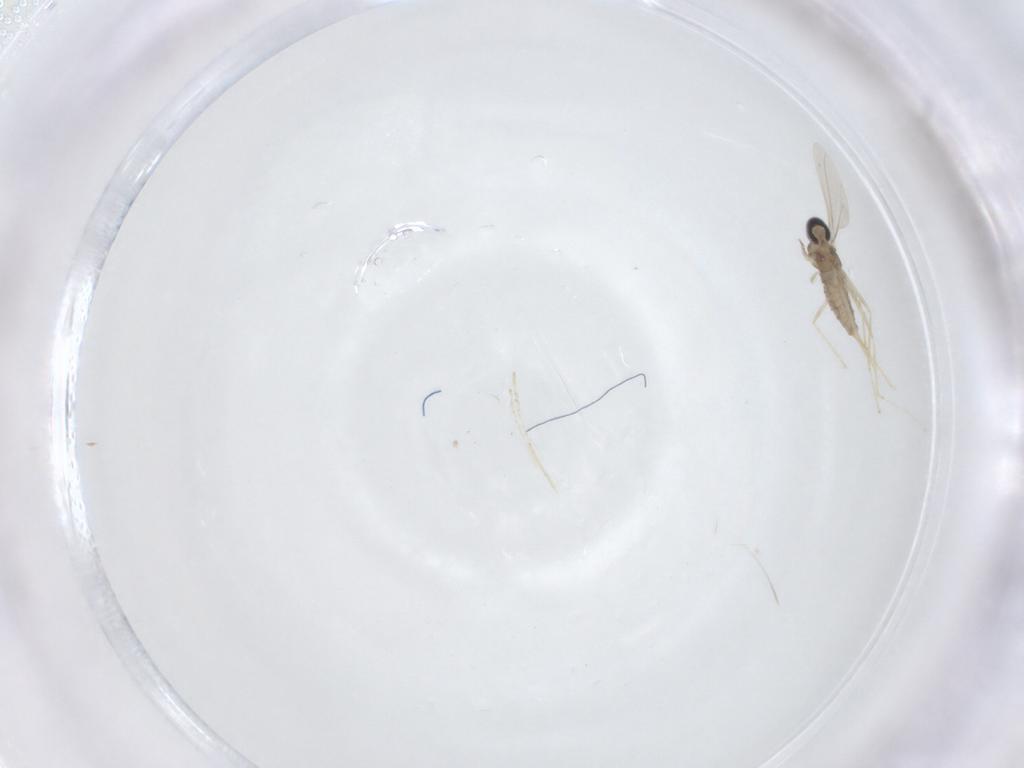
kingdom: Animalia
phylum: Arthropoda
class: Insecta
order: Diptera
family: Cecidomyiidae
